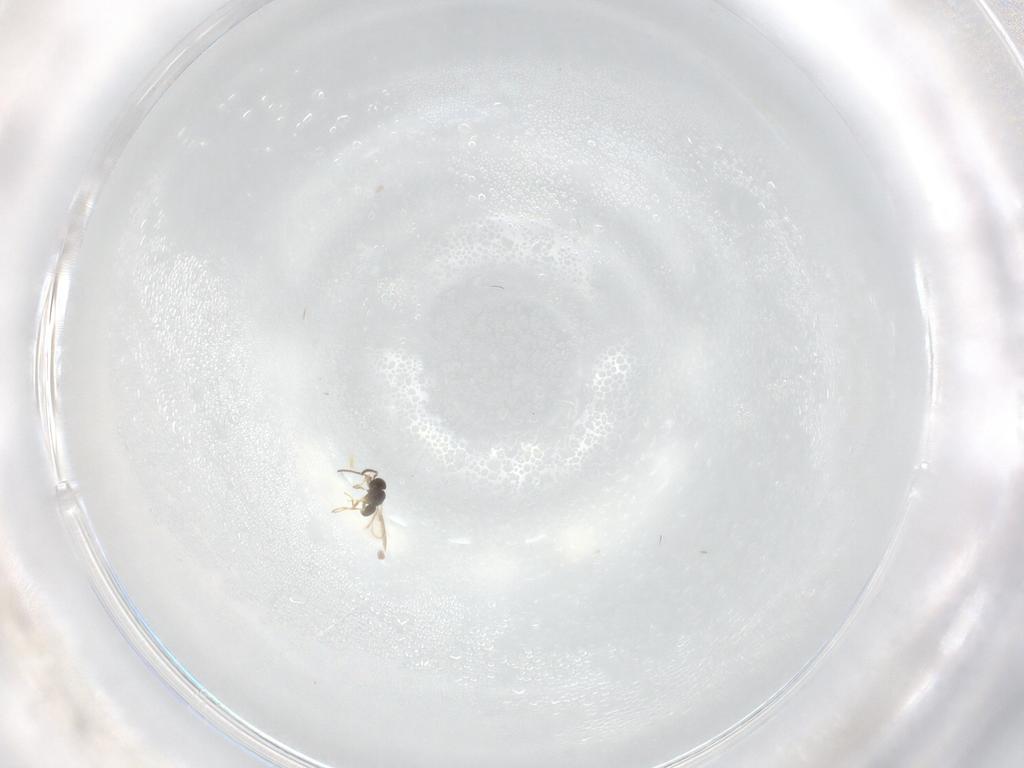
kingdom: Animalia
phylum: Arthropoda
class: Insecta
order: Hymenoptera
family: Scelionidae
